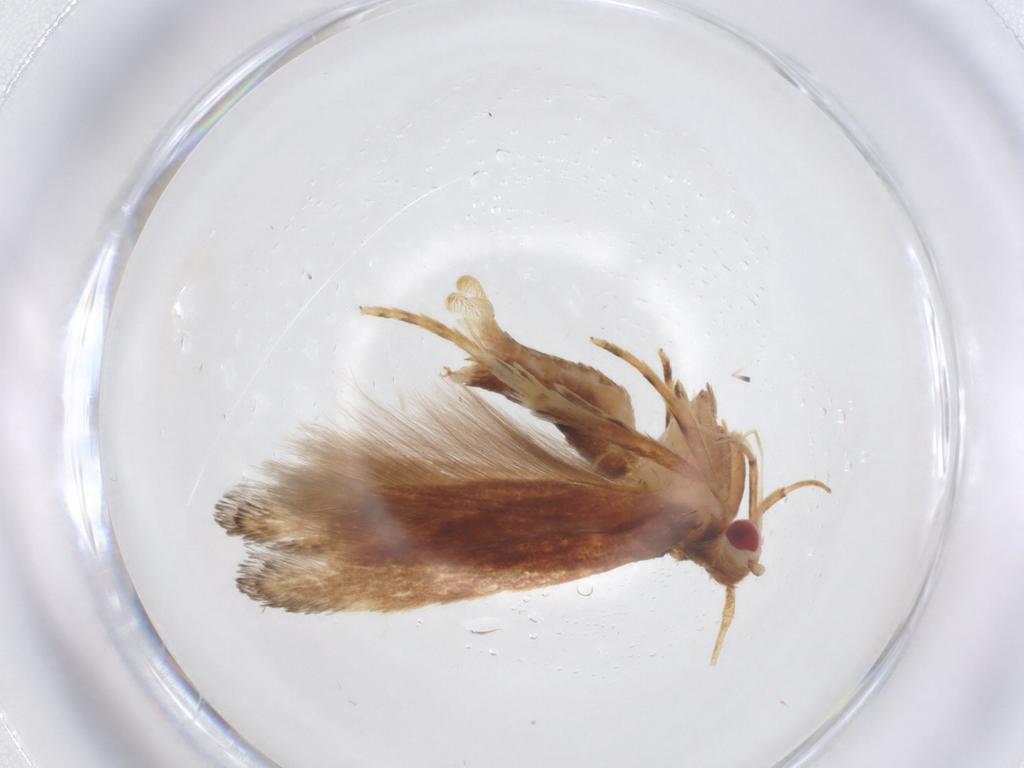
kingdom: Animalia
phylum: Arthropoda
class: Insecta
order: Lepidoptera
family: Cosmopterigidae
